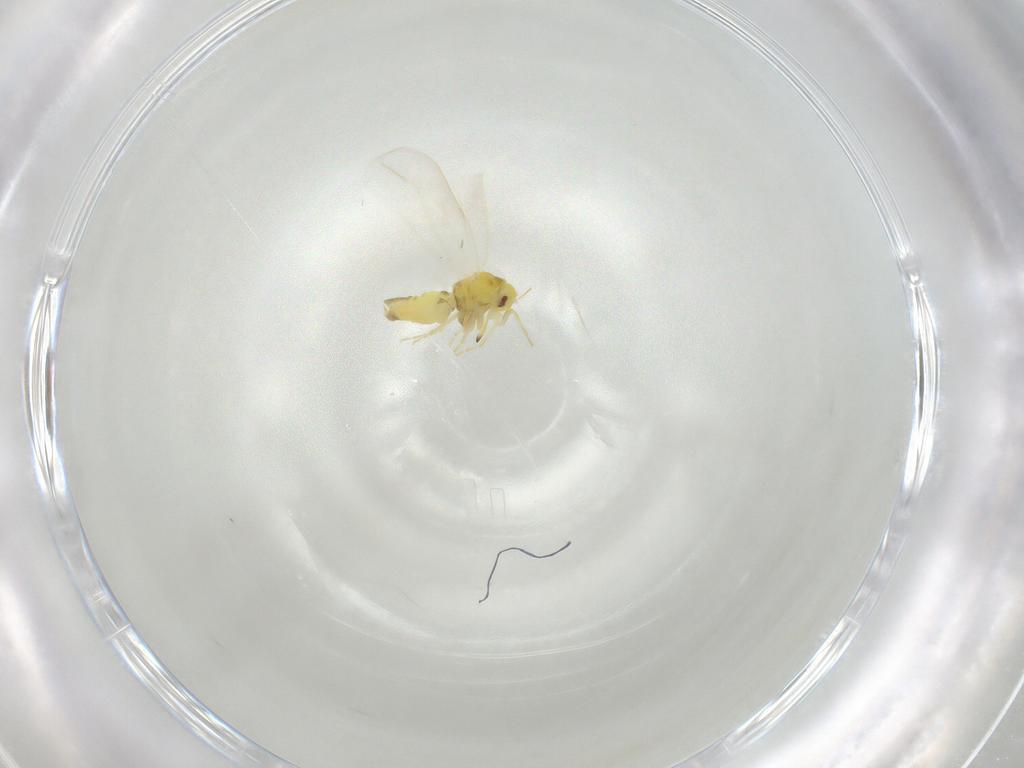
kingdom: Animalia
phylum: Arthropoda
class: Insecta
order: Hemiptera
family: Aleyrodidae
